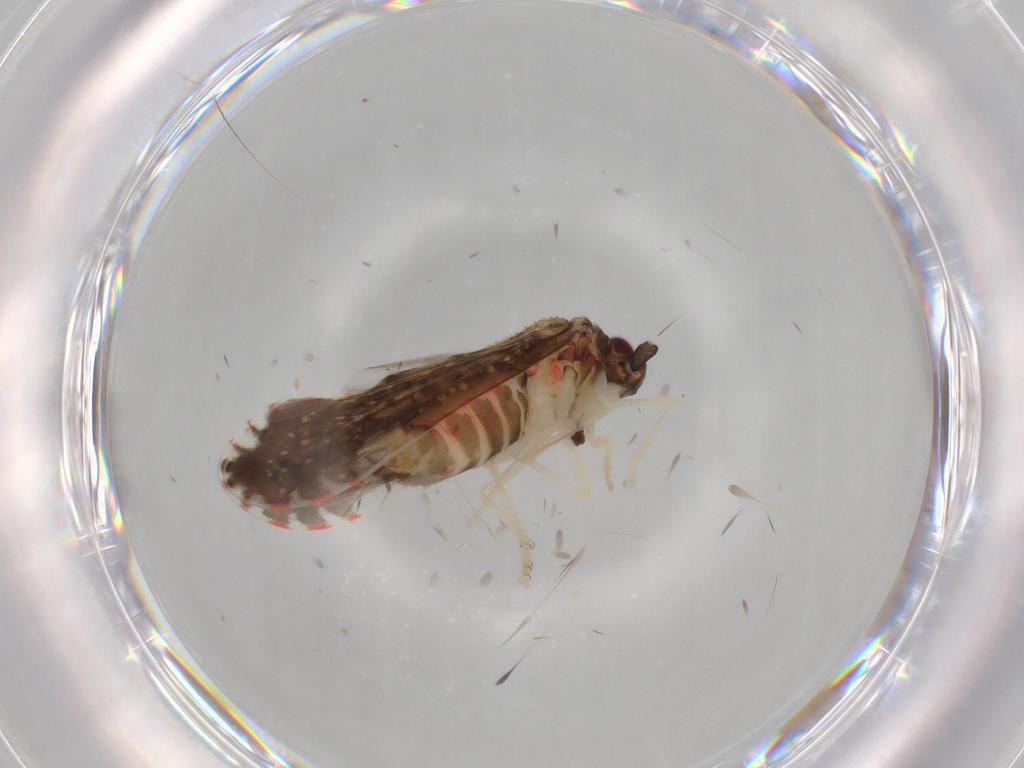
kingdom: Animalia
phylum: Arthropoda
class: Insecta
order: Hemiptera
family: Derbidae
